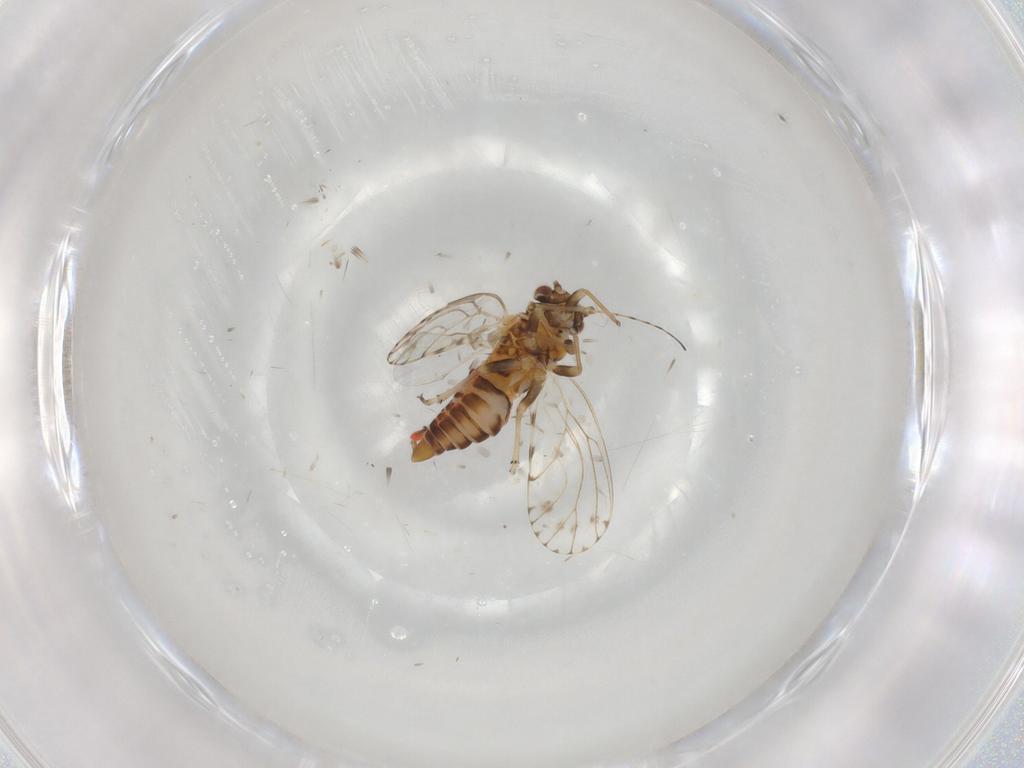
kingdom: Animalia
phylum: Arthropoda
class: Insecta
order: Hemiptera
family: Psyllidae
